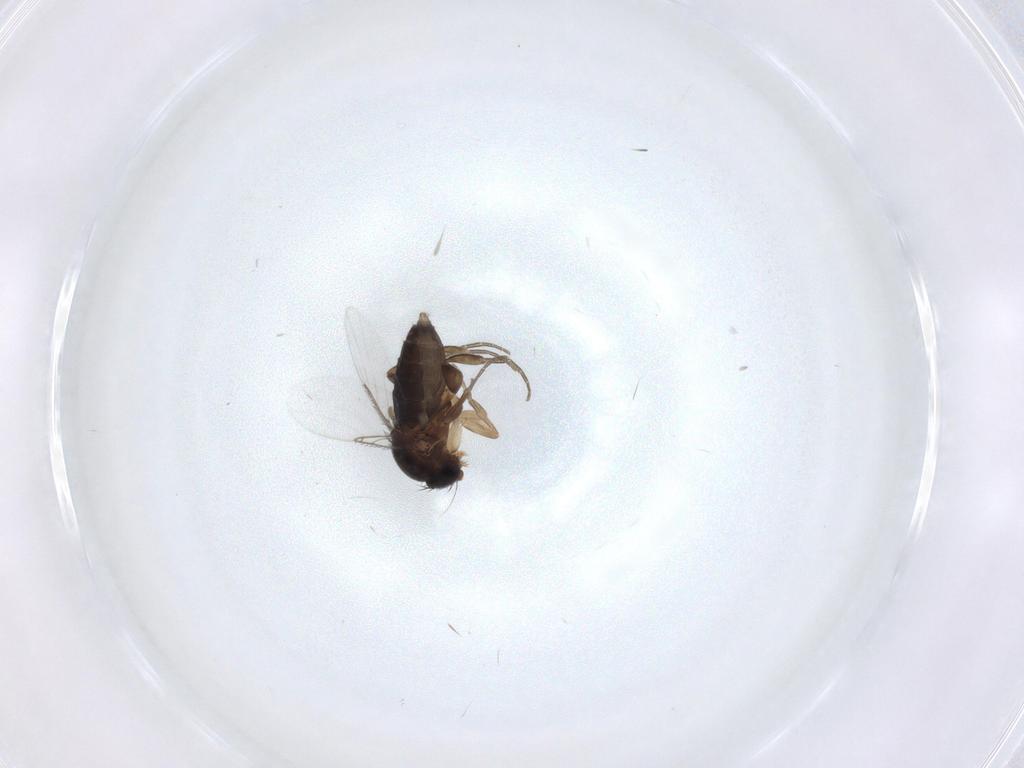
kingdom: Animalia
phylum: Arthropoda
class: Insecta
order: Diptera
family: Phoridae
